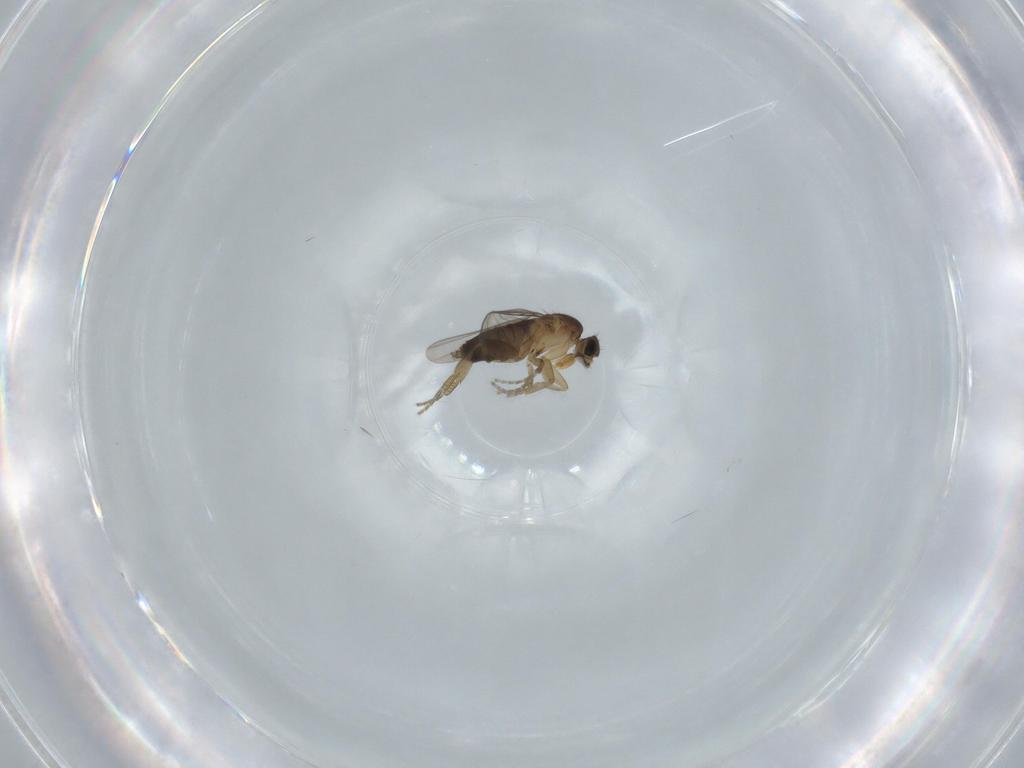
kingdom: Animalia
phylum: Arthropoda
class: Insecta
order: Diptera
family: Phoridae
